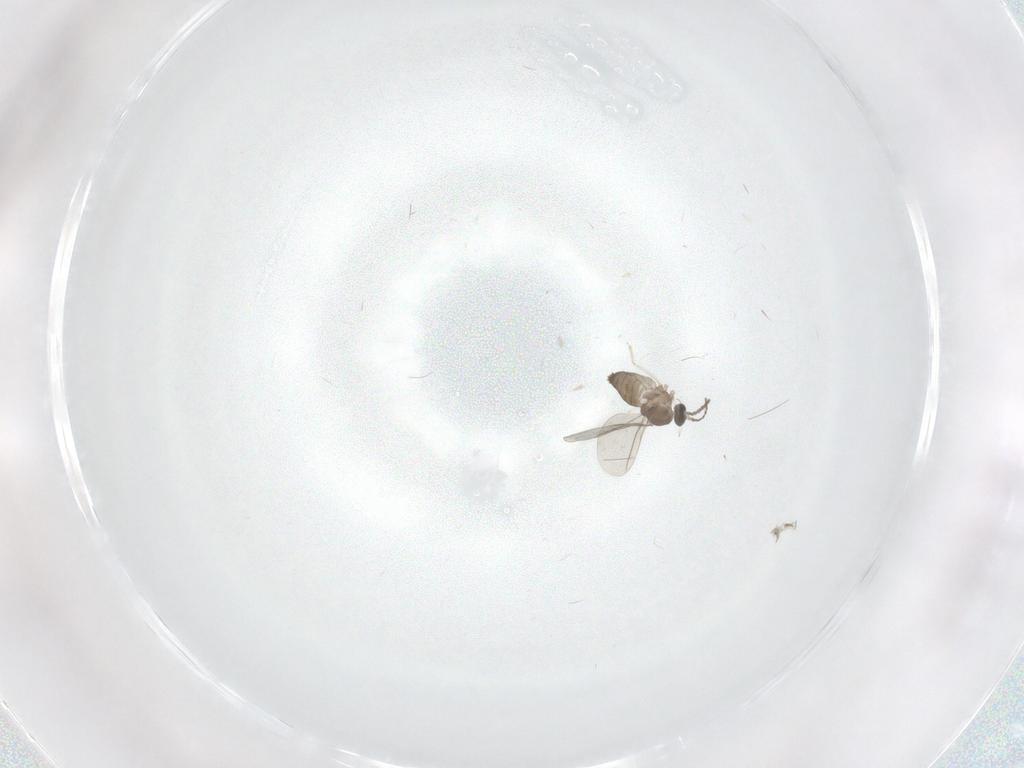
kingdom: Animalia
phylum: Arthropoda
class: Insecta
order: Diptera
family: Cecidomyiidae
